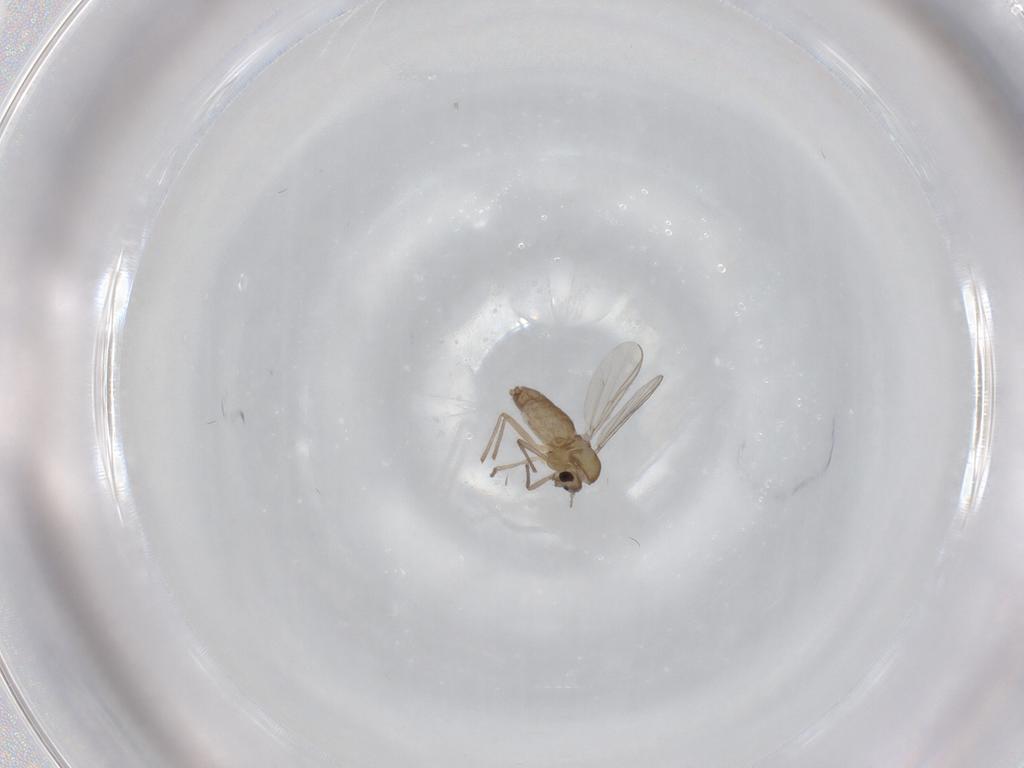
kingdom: Animalia
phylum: Arthropoda
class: Insecta
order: Diptera
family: Chironomidae
